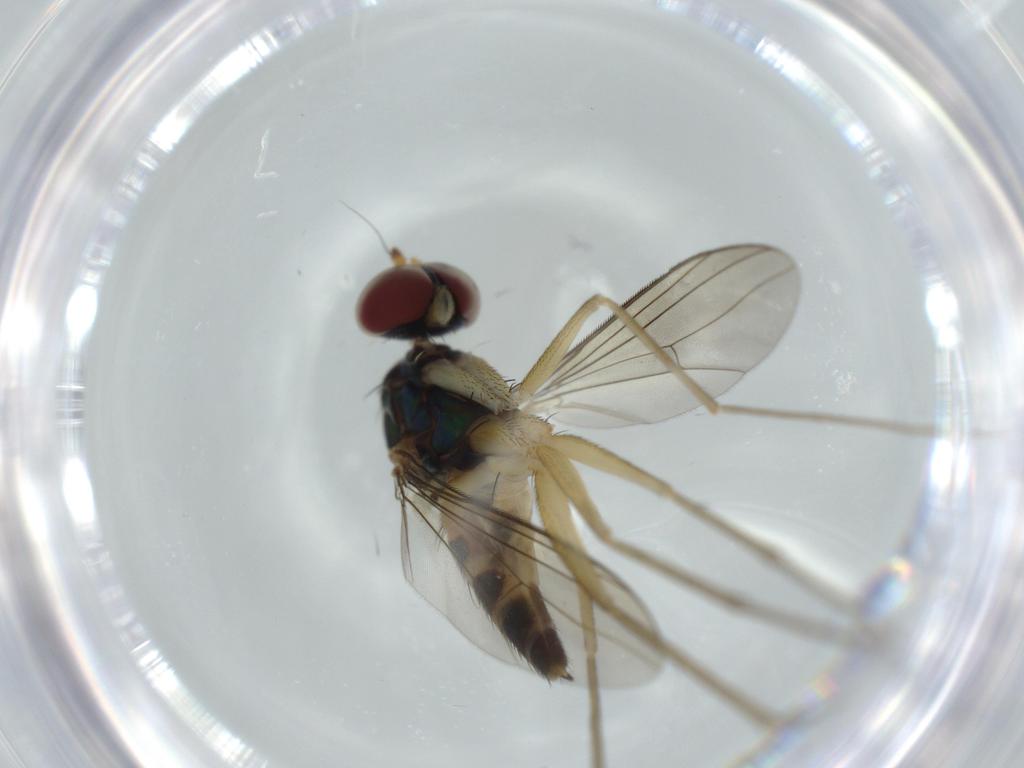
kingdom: Animalia
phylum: Arthropoda
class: Insecta
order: Diptera
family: Dolichopodidae
